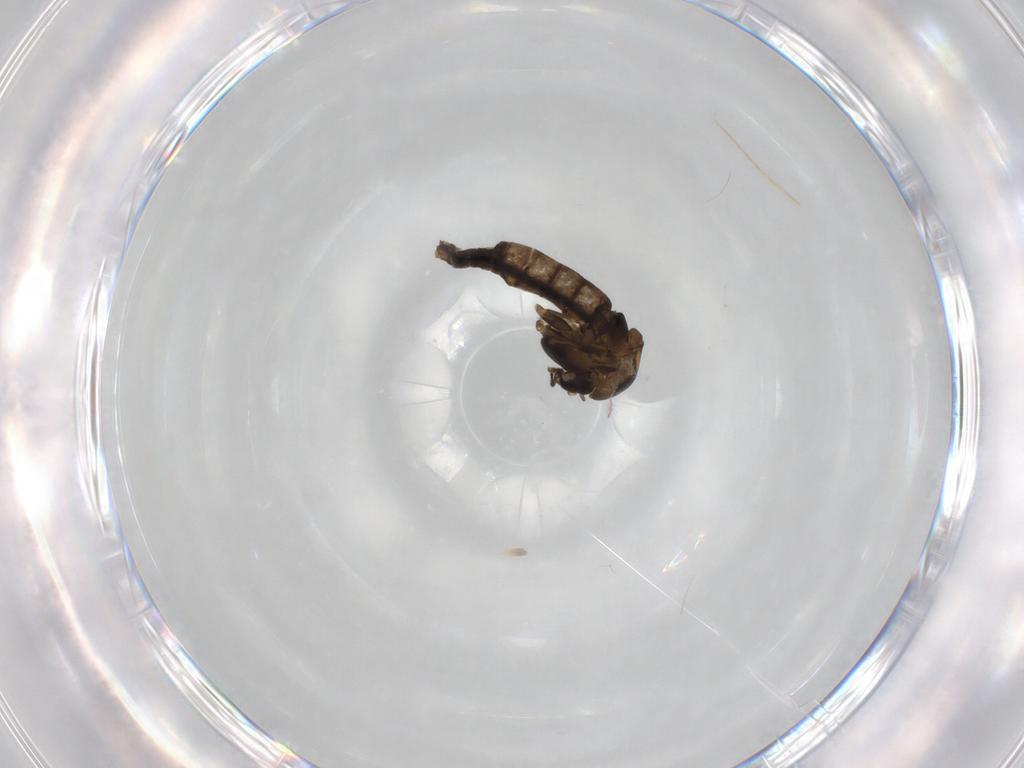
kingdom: Animalia
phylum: Arthropoda
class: Insecta
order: Diptera
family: Chironomidae
